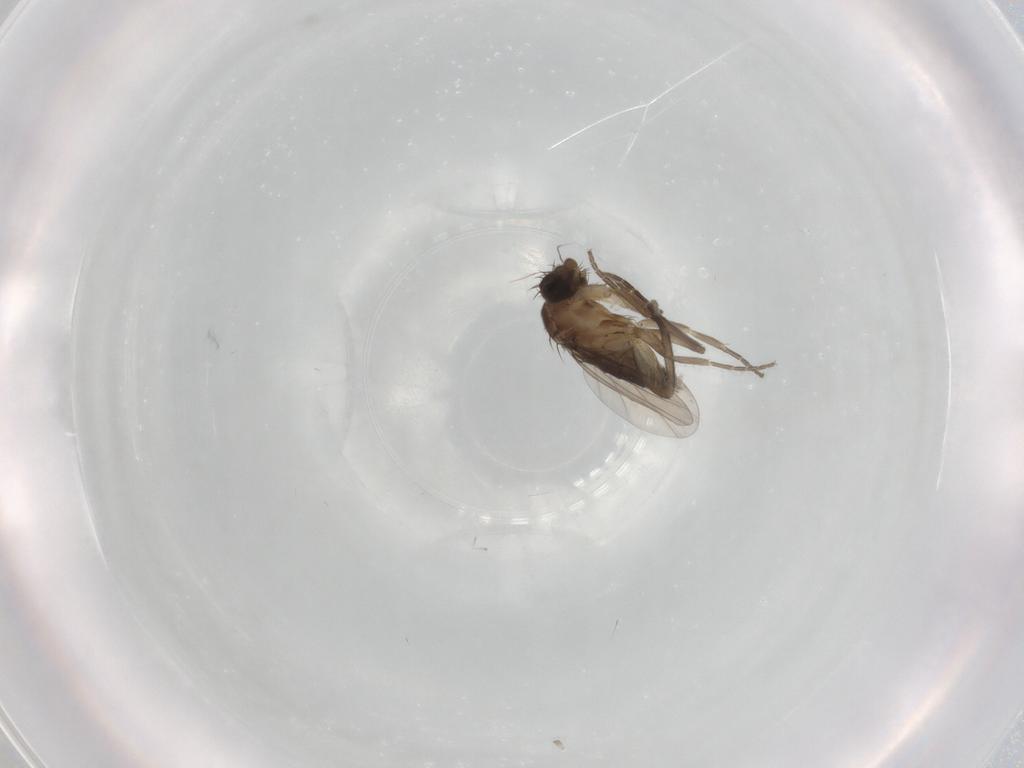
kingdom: Animalia
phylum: Arthropoda
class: Insecta
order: Diptera
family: Phoridae
